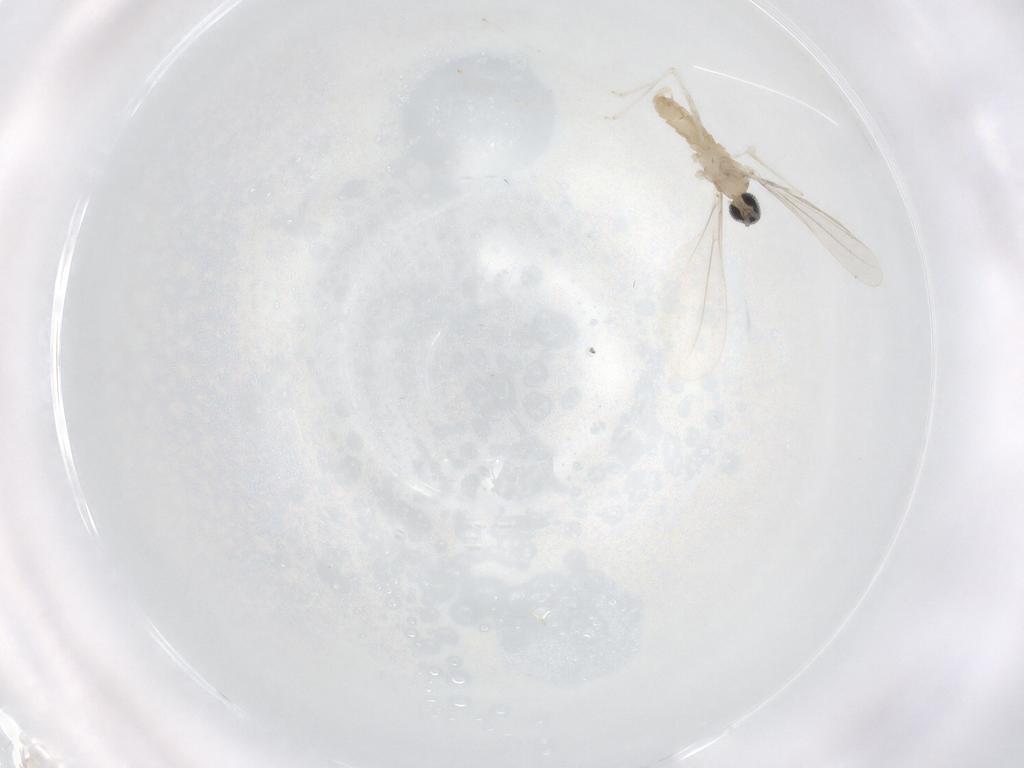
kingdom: Animalia
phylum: Arthropoda
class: Insecta
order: Diptera
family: Cecidomyiidae
